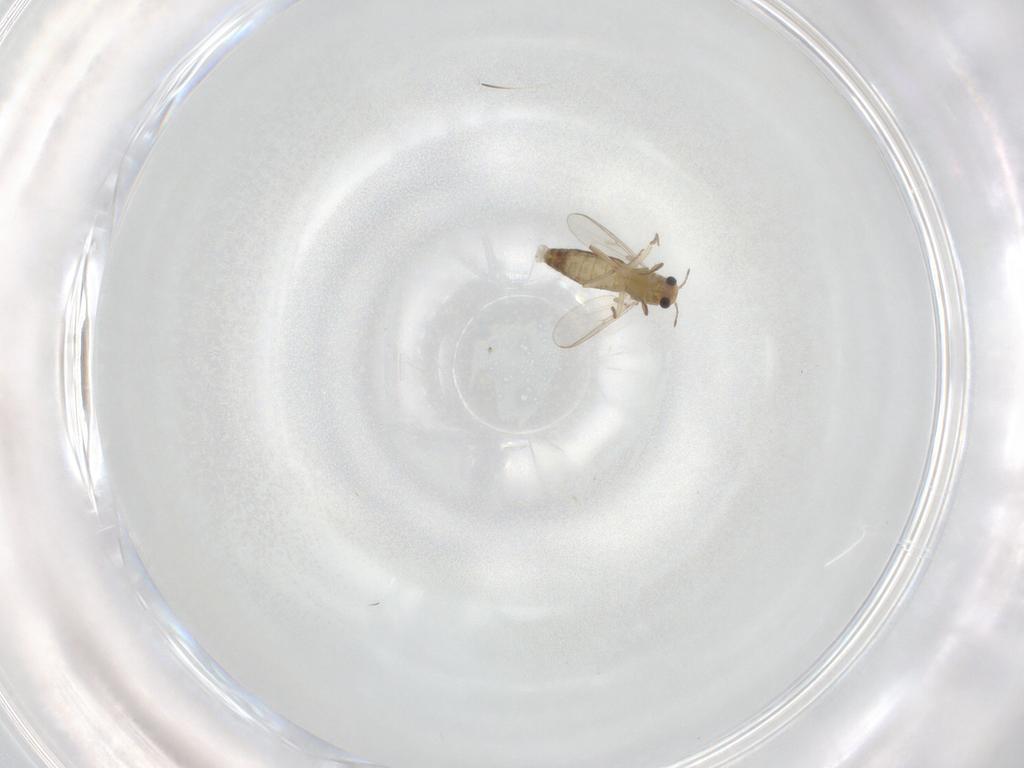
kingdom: Animalia
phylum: Arthropoda
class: Insecta
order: Diptera
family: Chironomidae
